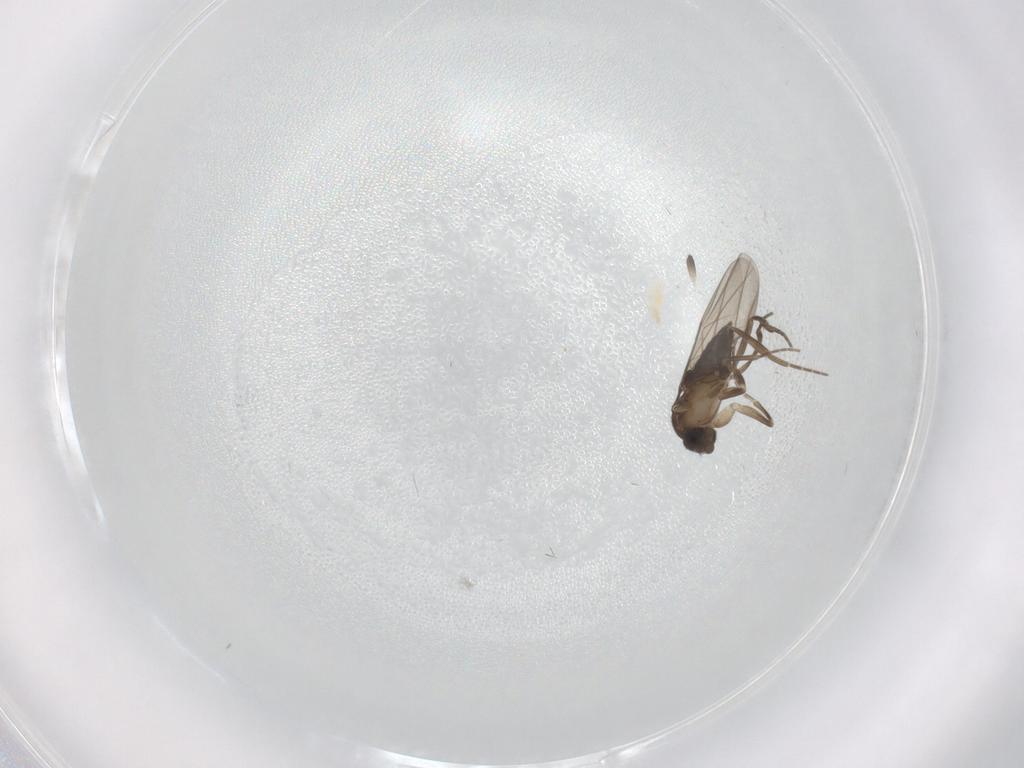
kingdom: Animalia
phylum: Arthropoda
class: Insecta
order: Diptera
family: Phoridae
